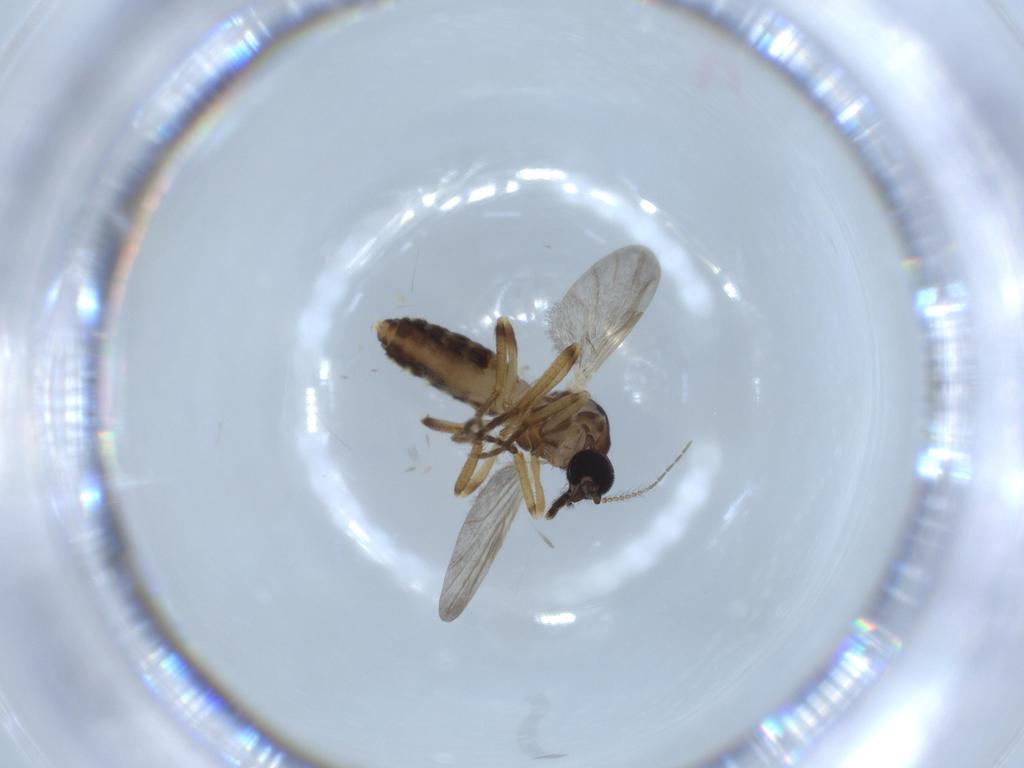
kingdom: Animalia
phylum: Arthropoda
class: Insecta
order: Diptera
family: Ceratopogonidae
